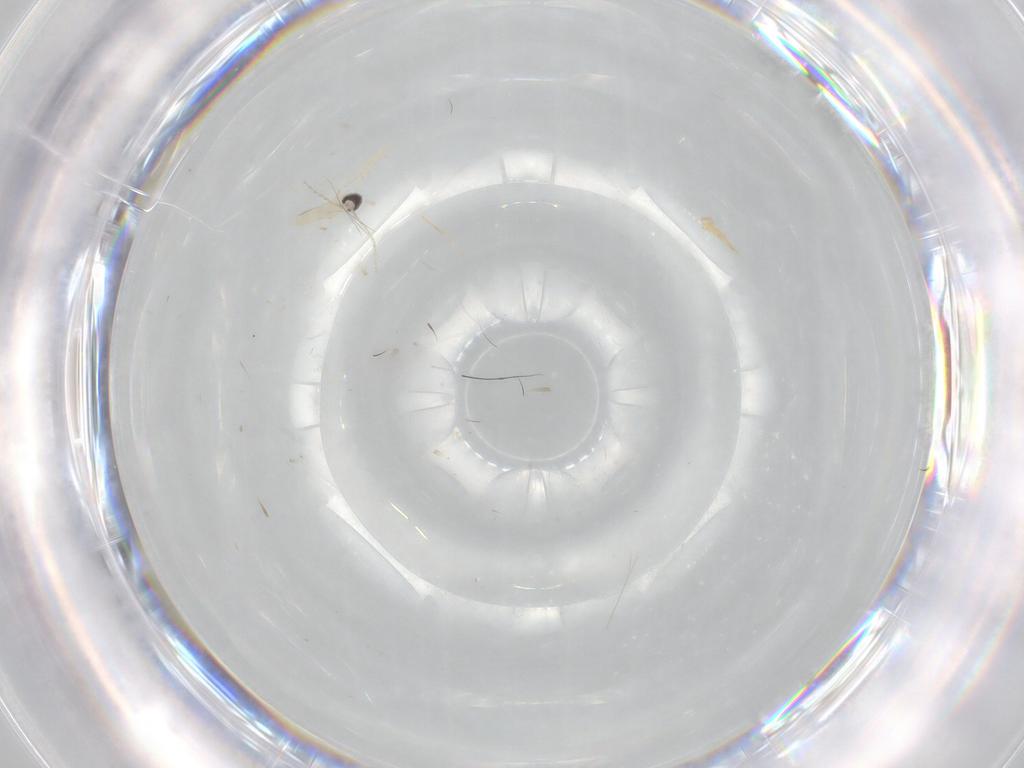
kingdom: Animalia
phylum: Arthropoda
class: Insecta
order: Diptera
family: Cecidomyiidae
